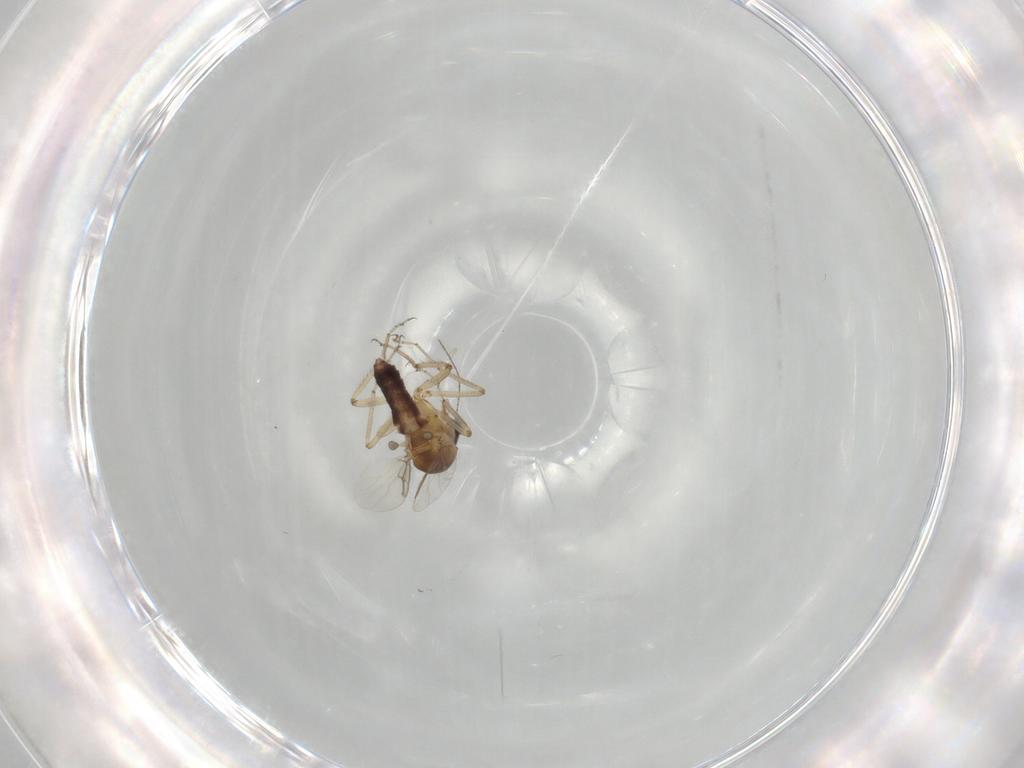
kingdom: Animalia
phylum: Arthropoda
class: Insecta
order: Diptera
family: Ceratopogonidae
